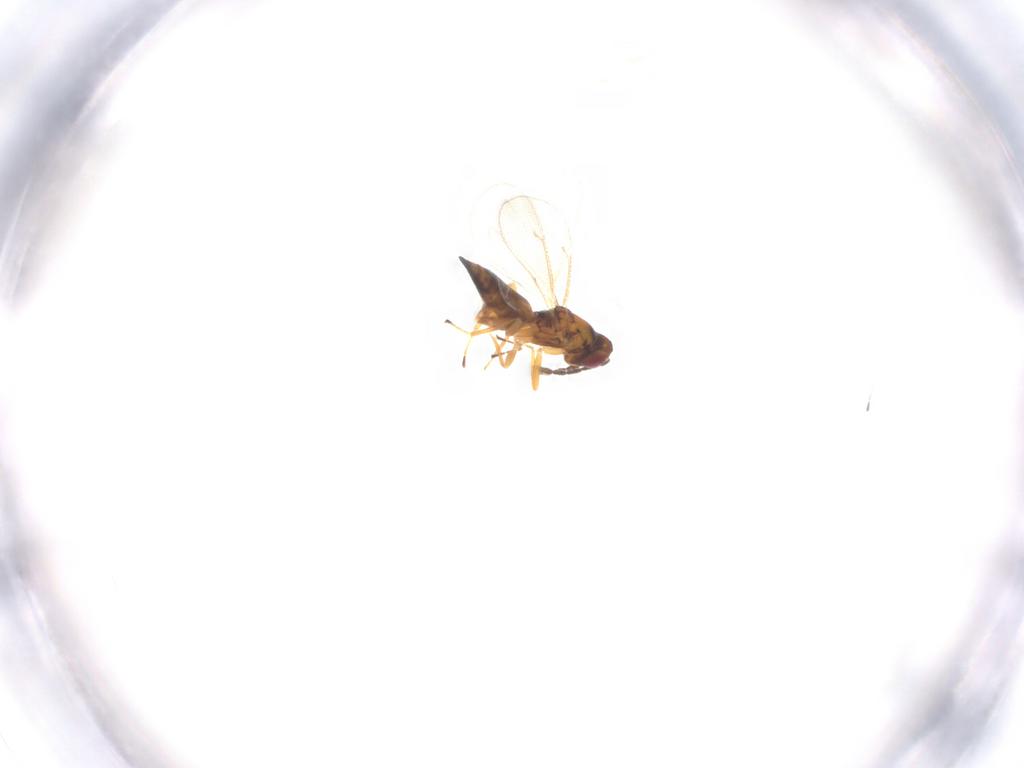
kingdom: Animalia
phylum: Arthropoda
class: Insecta
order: Hymenoptera
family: Eulophidae
